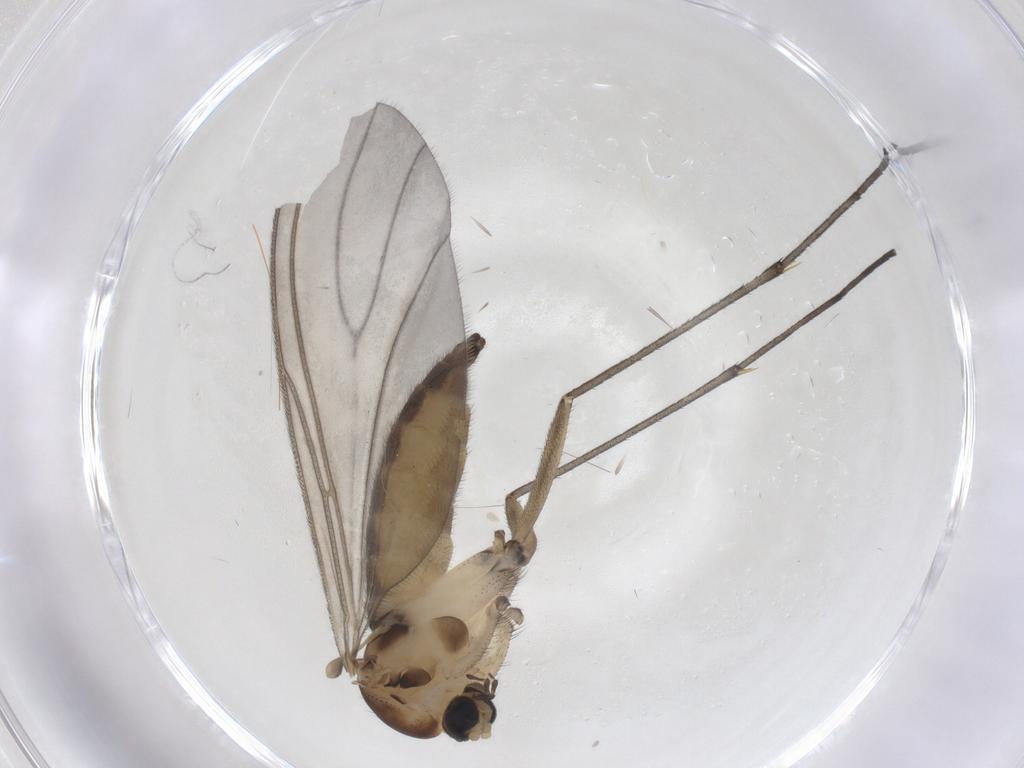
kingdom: Animalia
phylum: Arthropoda
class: Insecta
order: Diptera
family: Sciaridae
